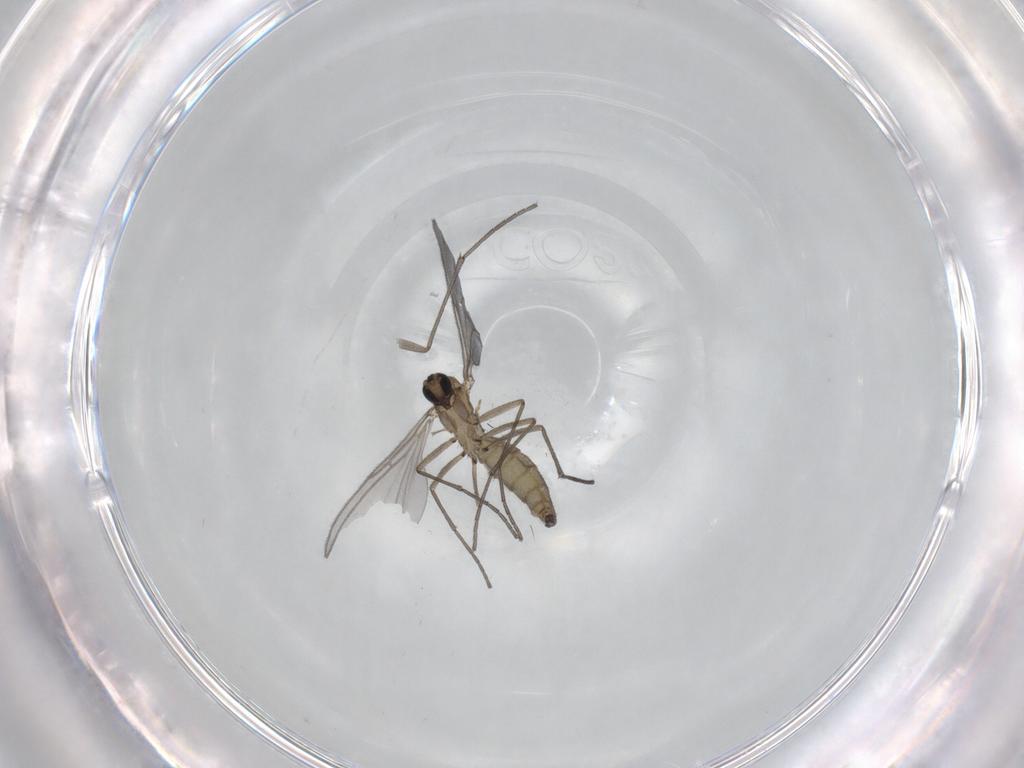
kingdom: Animalia
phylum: Arthropoda
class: Insecta
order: Diptera
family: Sciaridae
